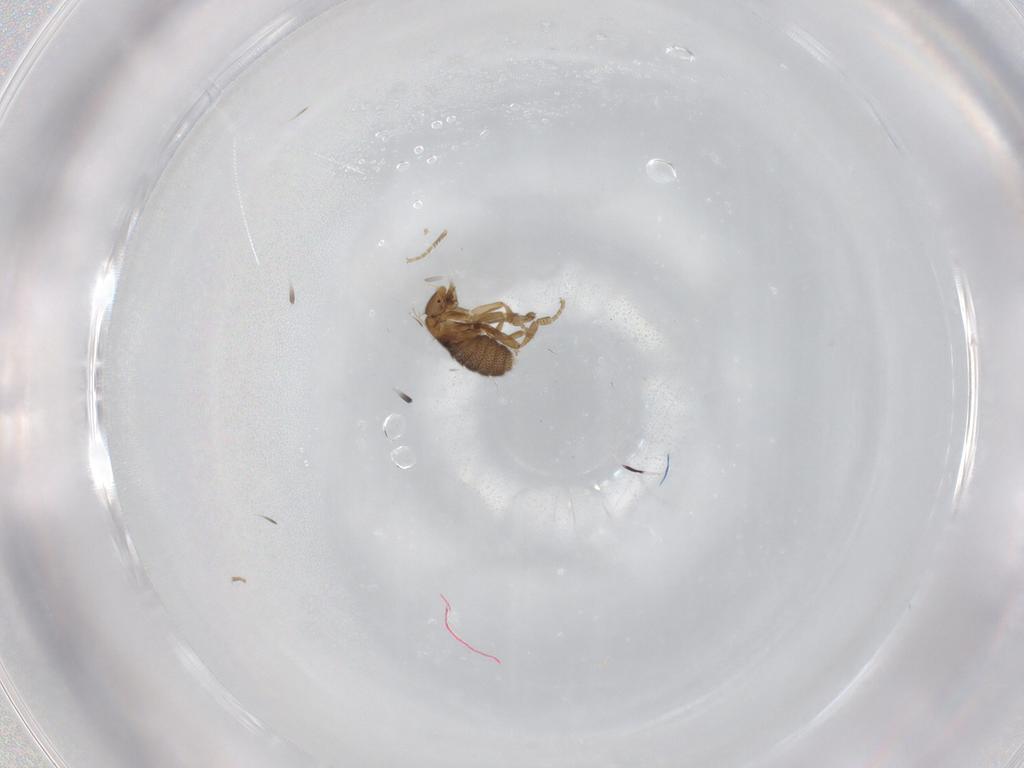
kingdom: Animalia
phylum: Arthropoda
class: Insecta
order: Diptera
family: Phoridae
